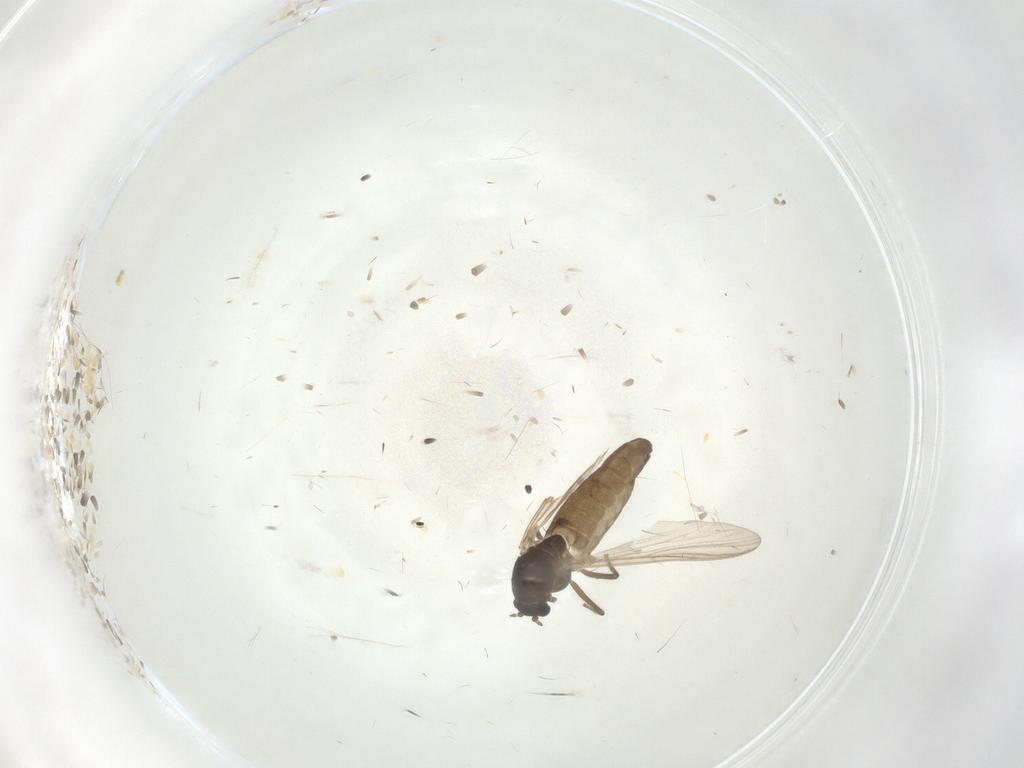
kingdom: Animalia
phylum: Arthropoda
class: Insecta
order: Diptera
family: Chironomidae
